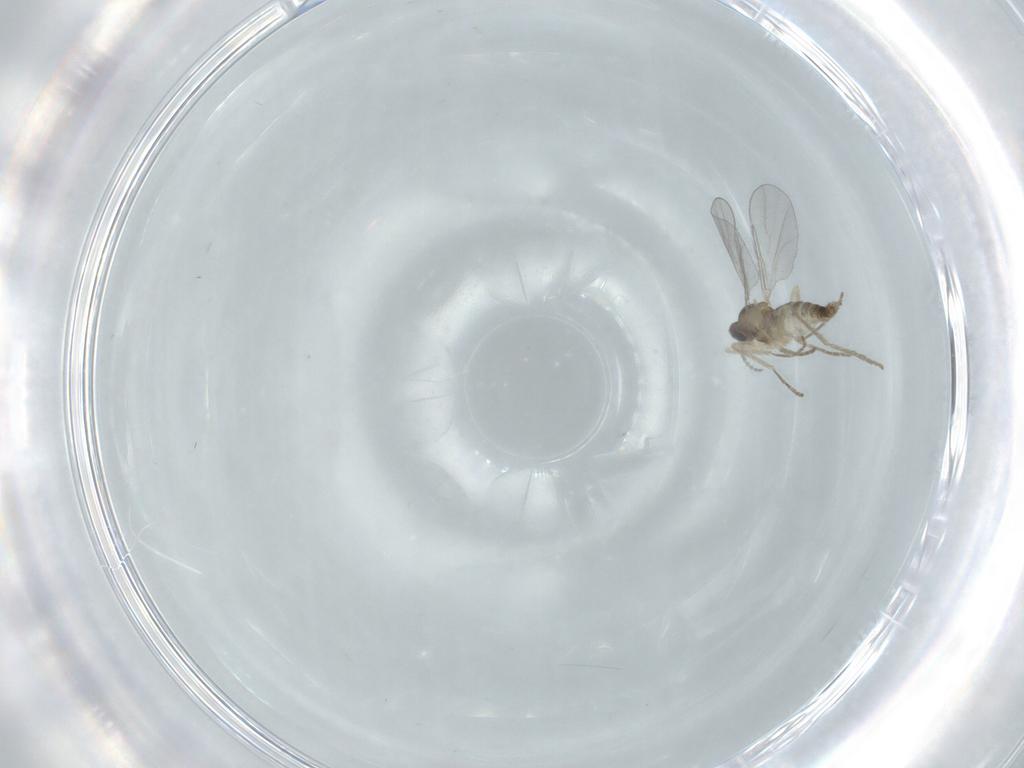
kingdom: Animalia
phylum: Arthropoda
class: Insecta
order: Diptera
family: Cecidomyiidae
